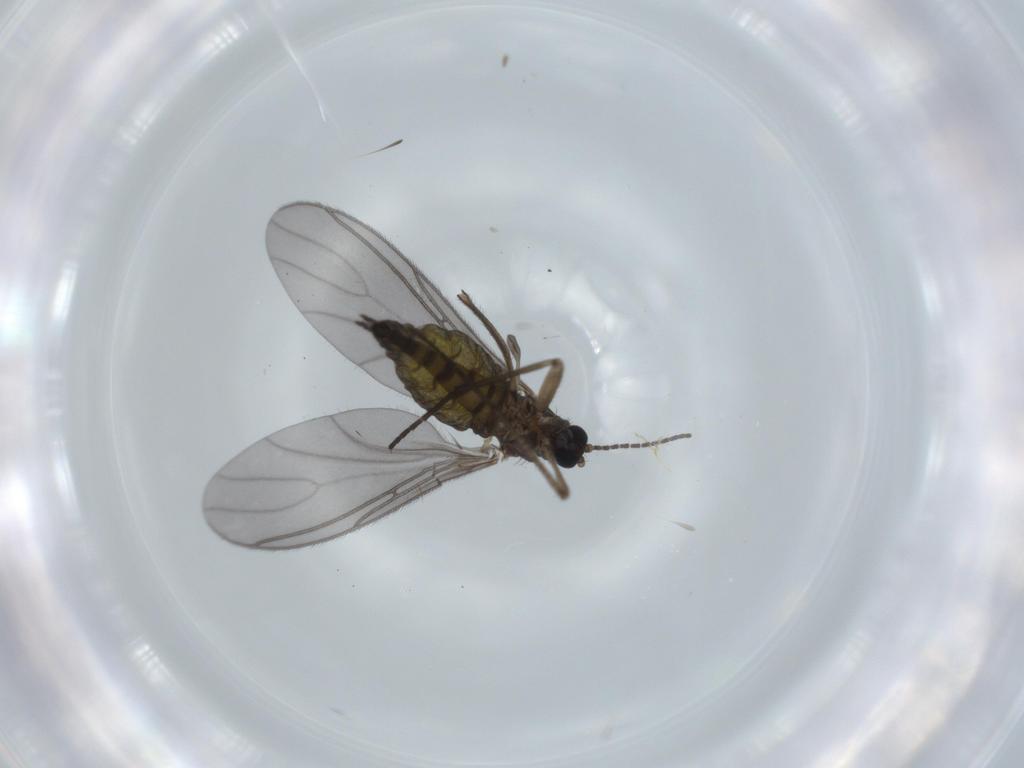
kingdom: Animalia
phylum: Arthropoda
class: Insecta
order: Diptera
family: Sciaridae
